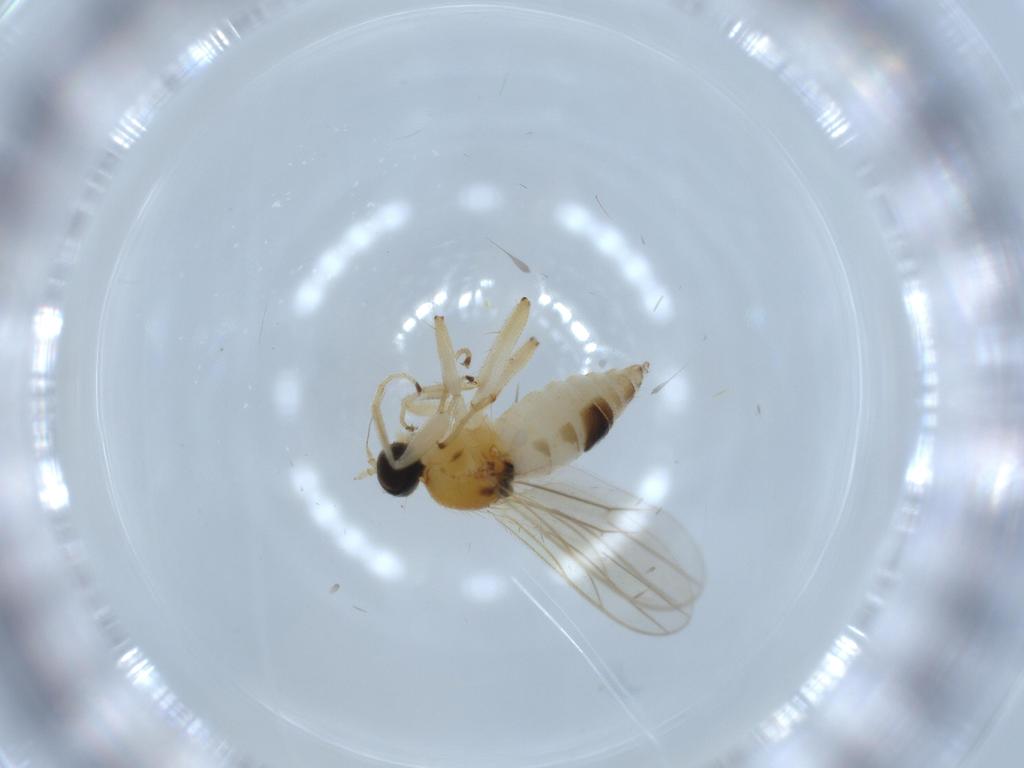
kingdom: Animalia
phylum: Arthropoda
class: Insecta
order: Diptera
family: Hybotidae
